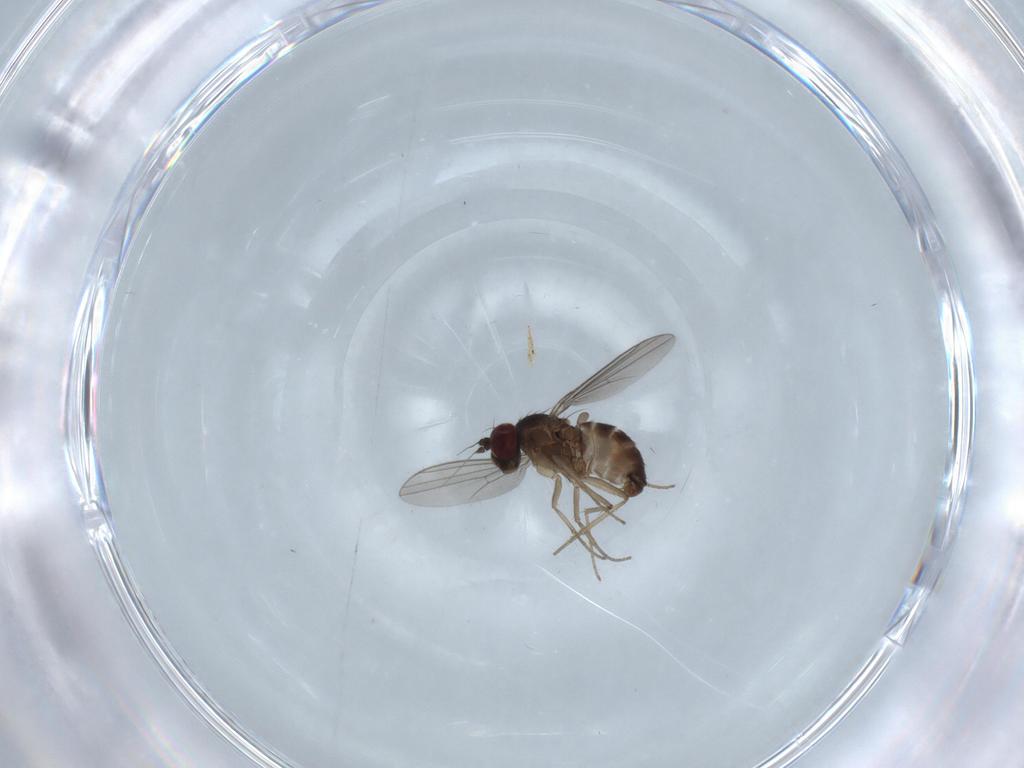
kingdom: Animalia
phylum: Arthropoda
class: Insecta
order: Diptera
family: Dolichopodidae
